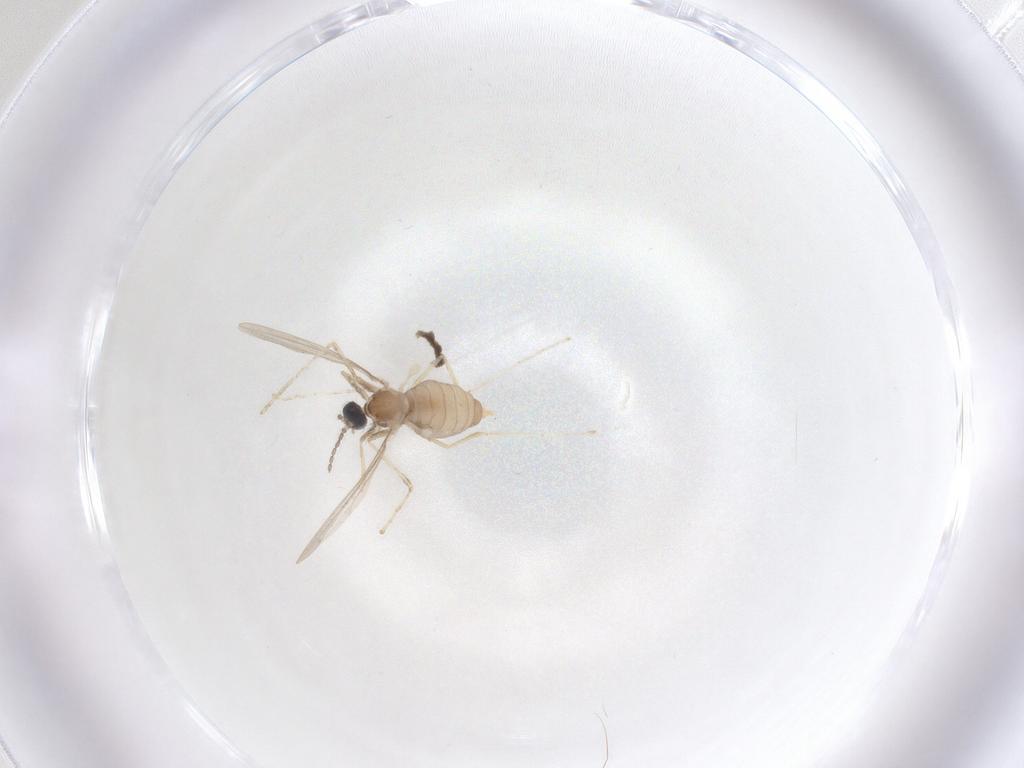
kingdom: Animalia
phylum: Arthropoda
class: Insecta
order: Diptera
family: Cecidomyiidae
